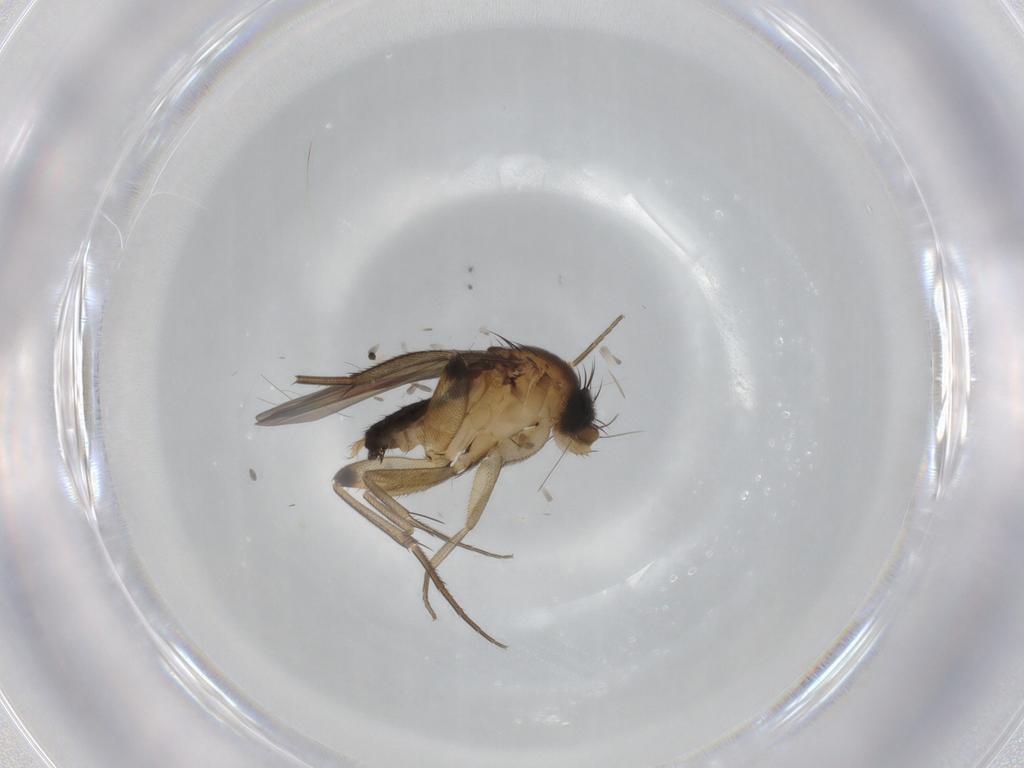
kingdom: Animalia
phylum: Arthropoda
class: Insecta
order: Diptera
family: Phoridae
